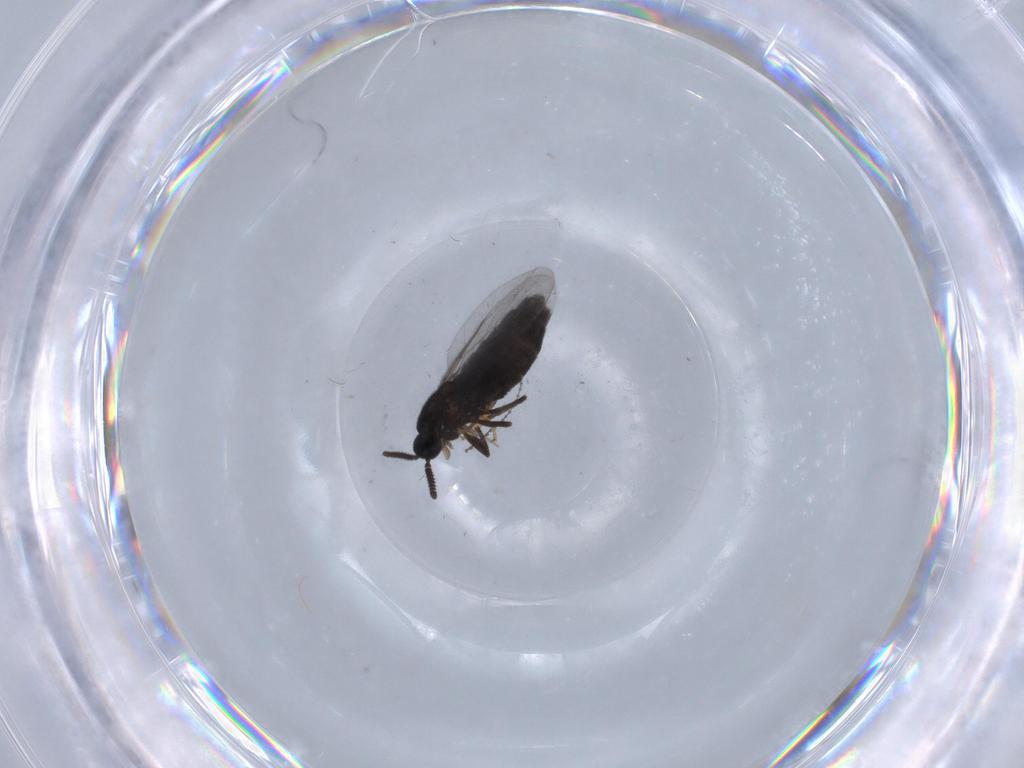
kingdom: Animalia
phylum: Arthropoda
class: Insecta
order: Diptera
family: Scatopsidae
